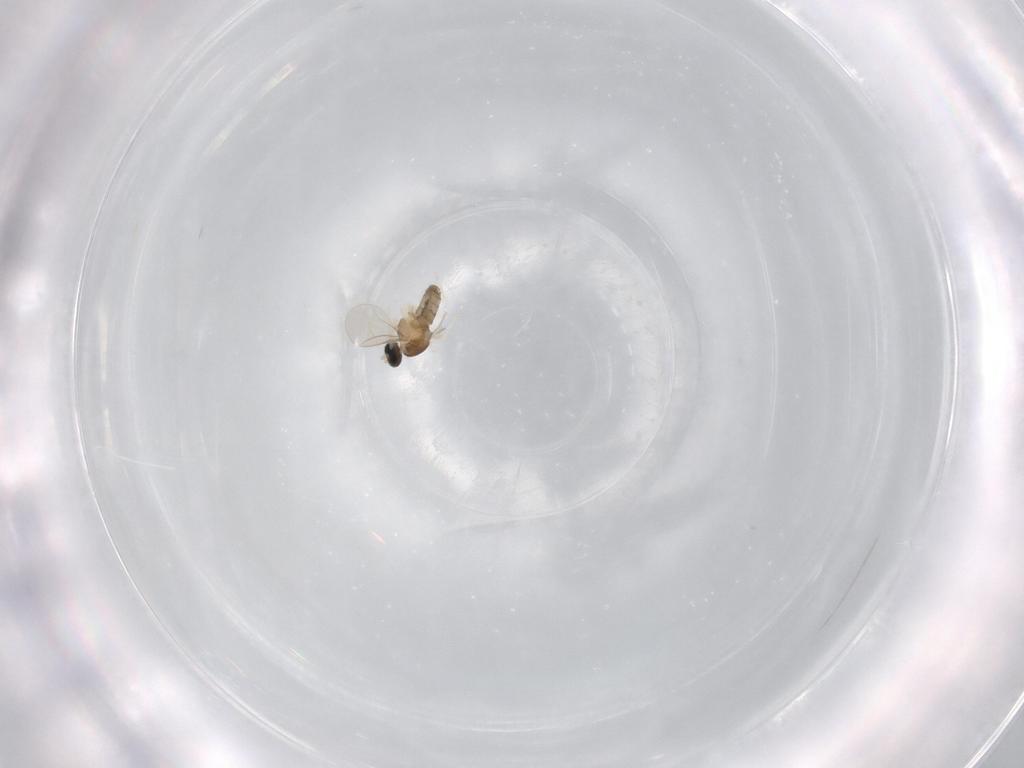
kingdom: Animalia
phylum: Arthropoda
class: Insecta
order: Diptera
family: Cecidomyiidae
